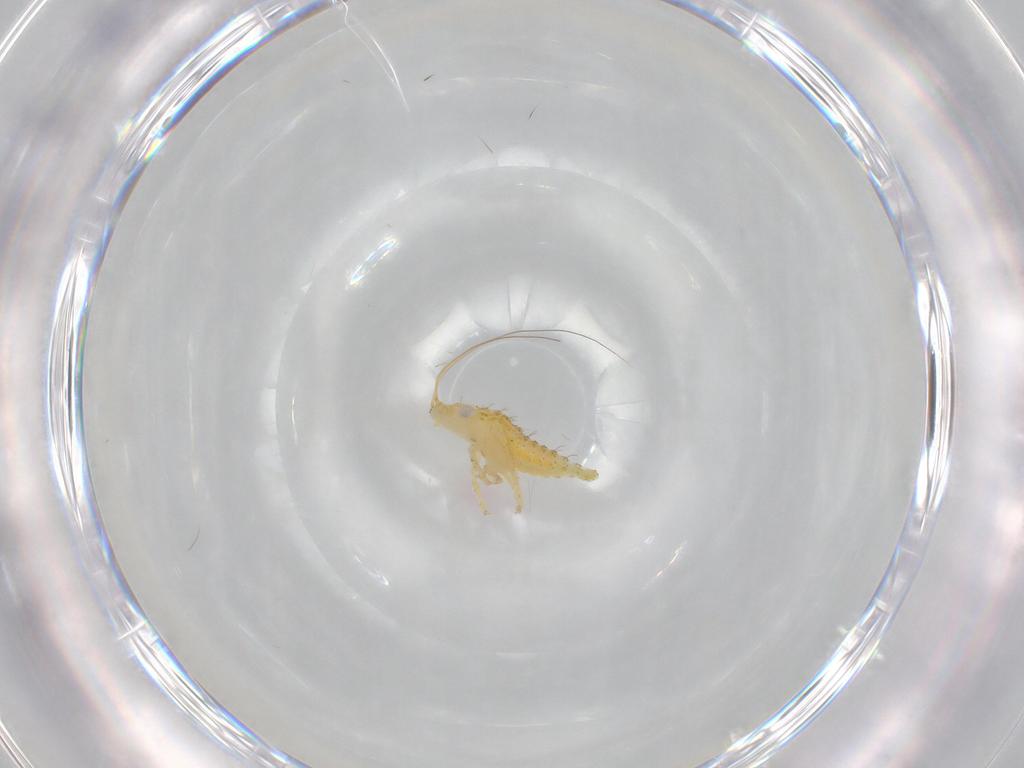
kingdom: Animalia
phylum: Arthropoda
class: Insecta
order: Hemiptera
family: Cicadellidae
